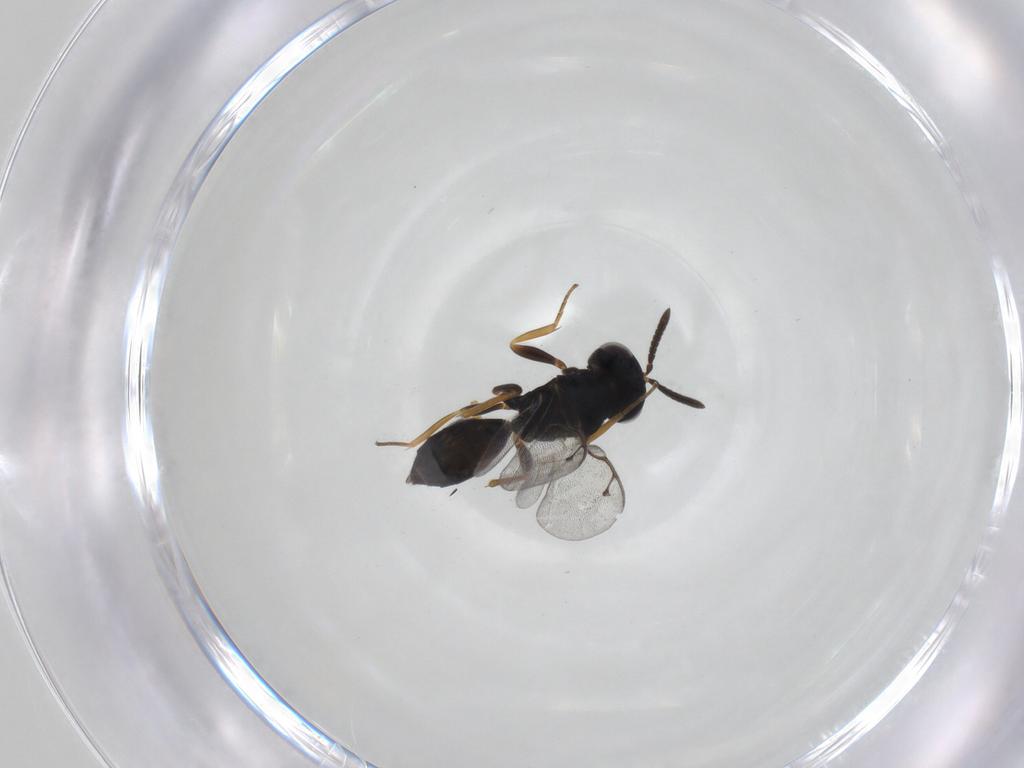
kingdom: Animalia
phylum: Arthropoda
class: Insecta
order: Hymenoptera
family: Pteromalidae
